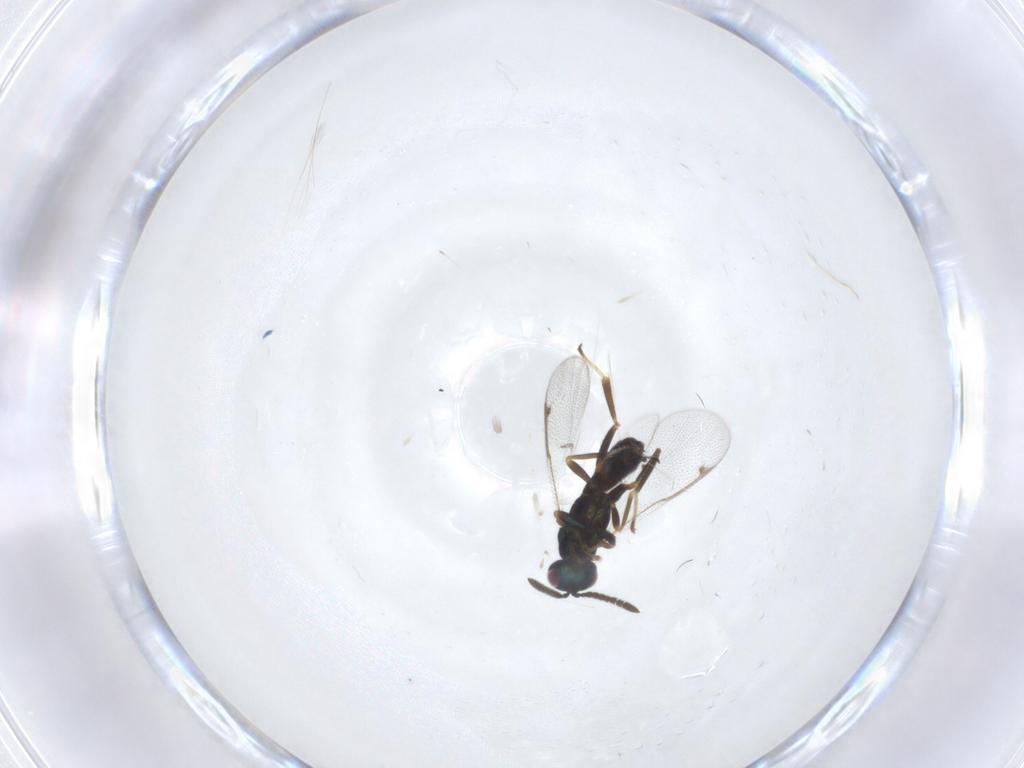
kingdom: Animalia
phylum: Arthropoda
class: Insecta
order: Hymenoptera
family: Torymidae
